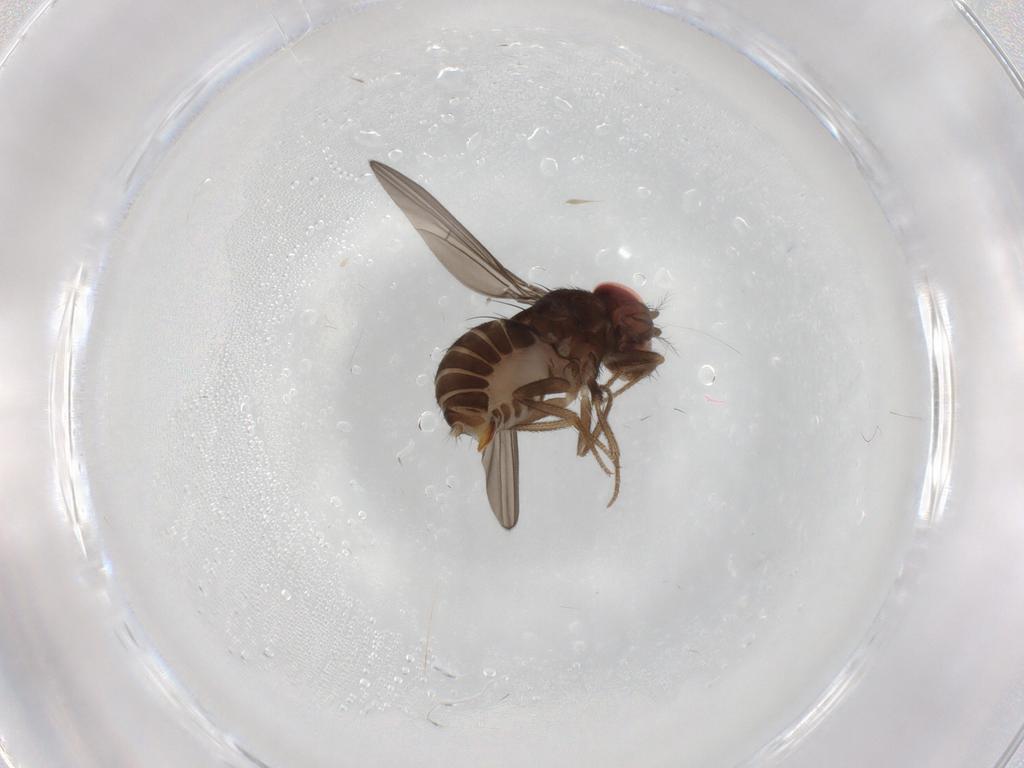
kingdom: Animalia
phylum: Arthropoda
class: Insecta
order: Diptera
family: Drosophilidae
